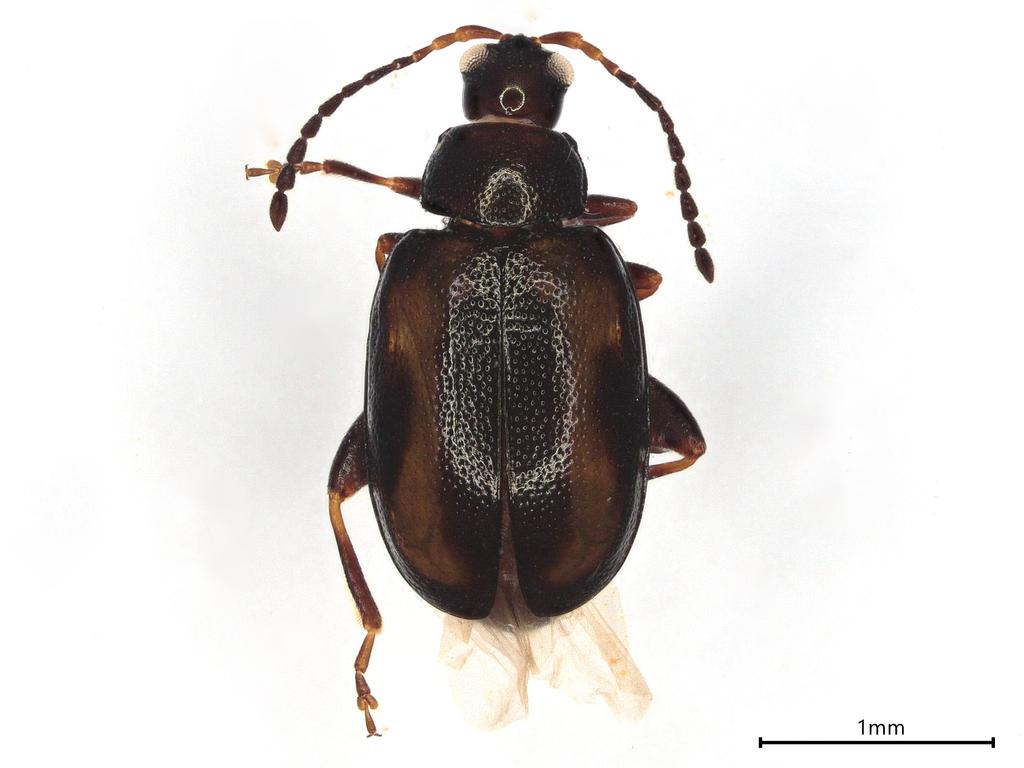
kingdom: Animalia
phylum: Arthropoda
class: Insecta
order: Coleoptera
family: Chrysomelidae
